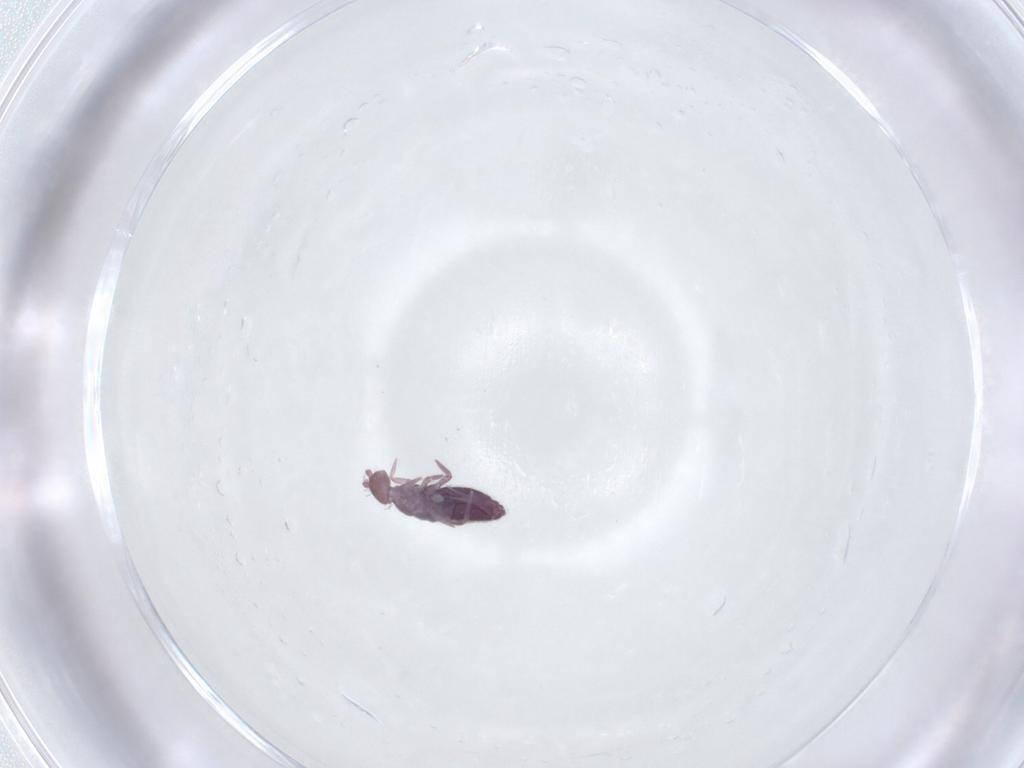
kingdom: Animalia
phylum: Arthropoda
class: Collembola
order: Entomobryomorpha
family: Entomobryidae
